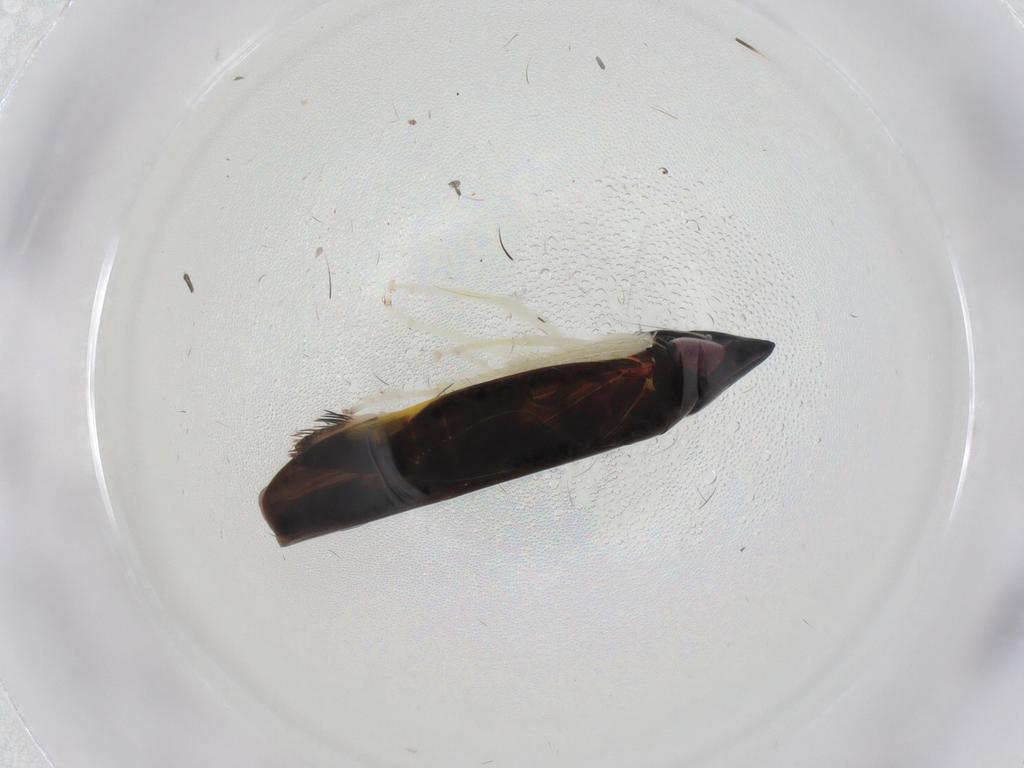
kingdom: Animalia
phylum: Arthropoda
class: Insecta
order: Hemiptera
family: Cicadellidae
